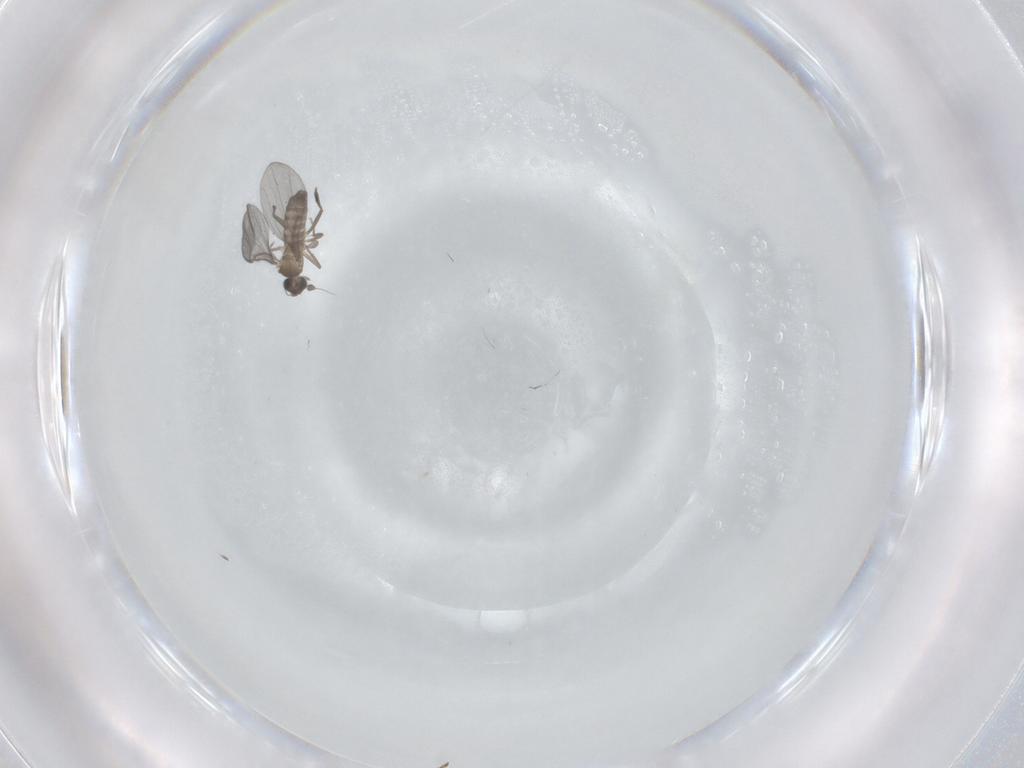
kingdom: Animalia
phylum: Arthropoda
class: Insecta
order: Diptera
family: Phoridae
